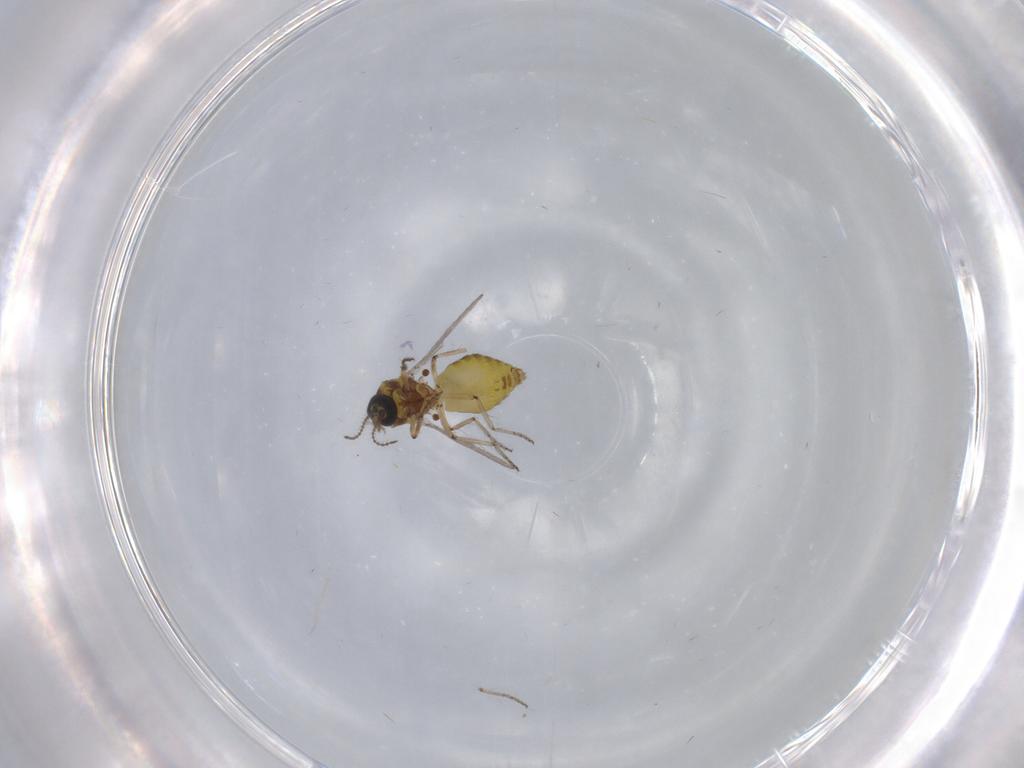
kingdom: Animalia
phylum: Arthropoda
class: Insecta
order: Diptera
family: Ceratopogonidae
